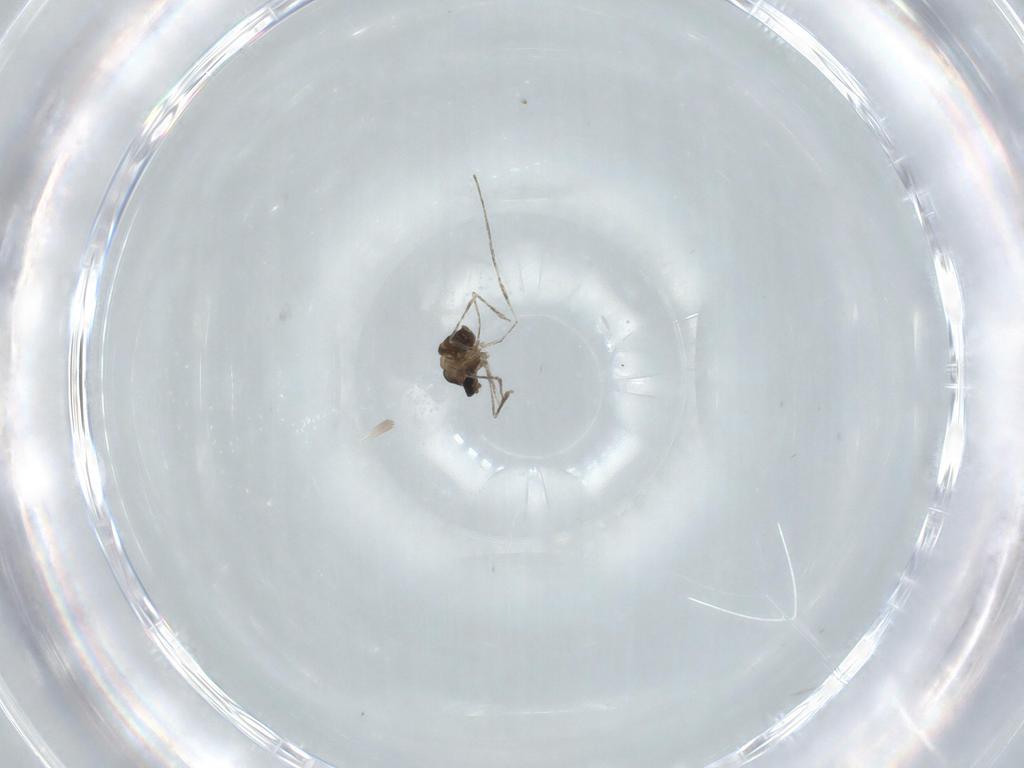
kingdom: Animalia
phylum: Arthropoda
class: Insecta
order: Diptera
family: Cecidomyiidae
